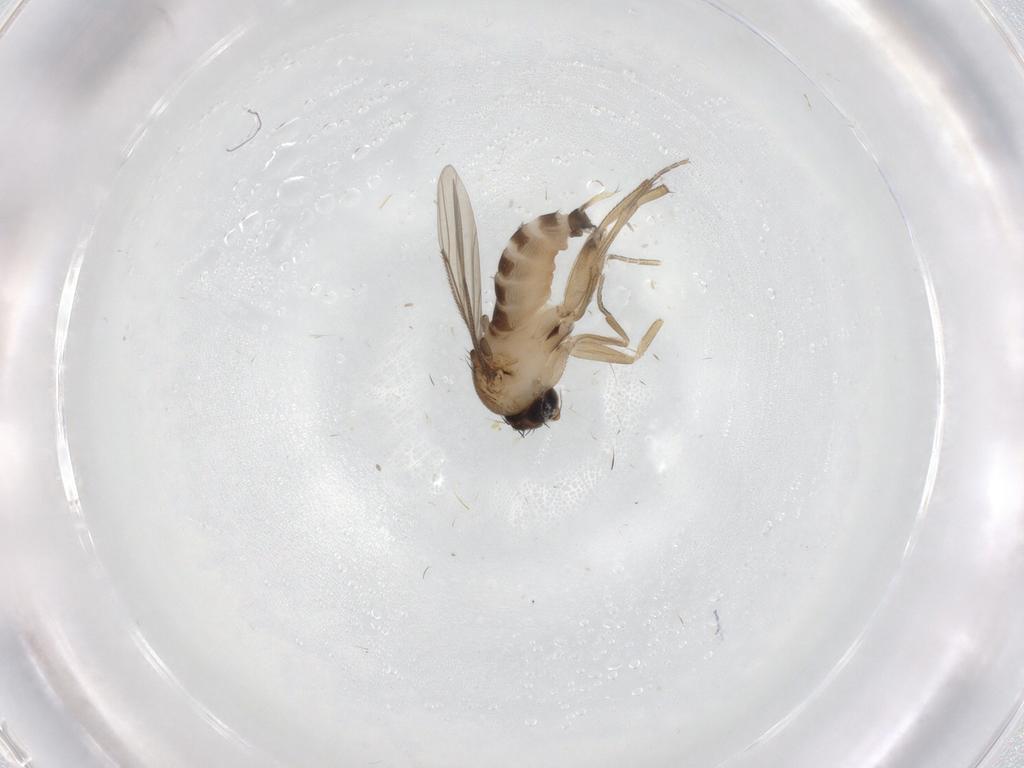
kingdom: Animalia
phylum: Arthropoda
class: Insecta
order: Diptera
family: Phoridae
